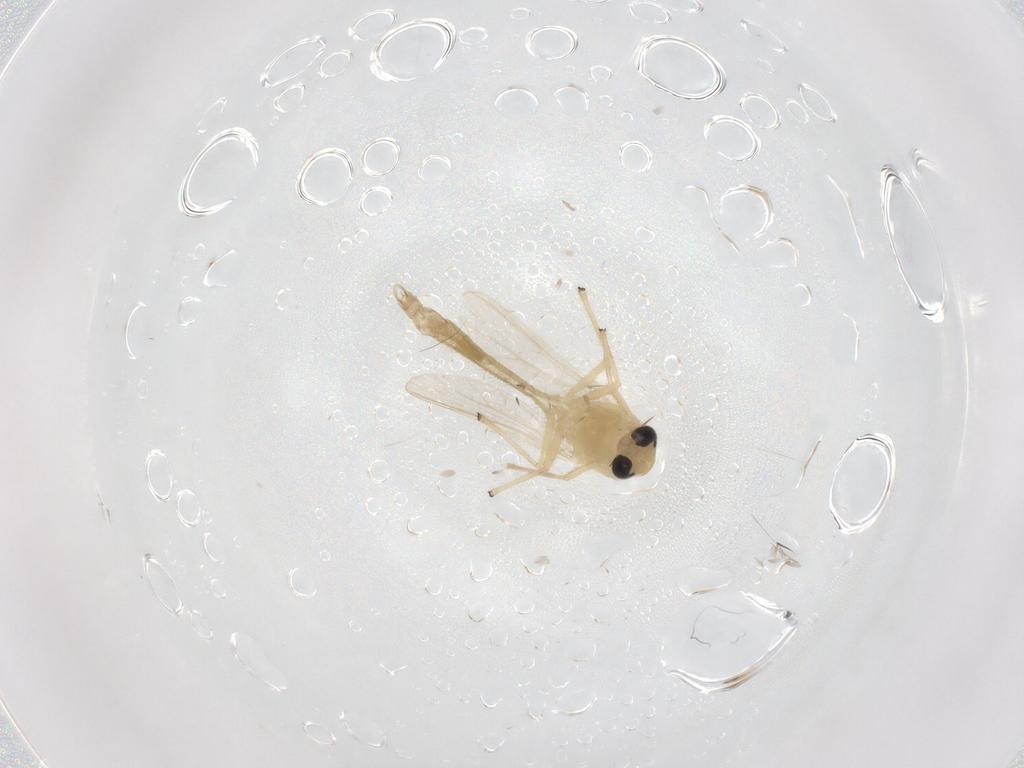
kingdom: Animalia
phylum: Arthropoda
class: Insecta
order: Diptera
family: Chironomidae
